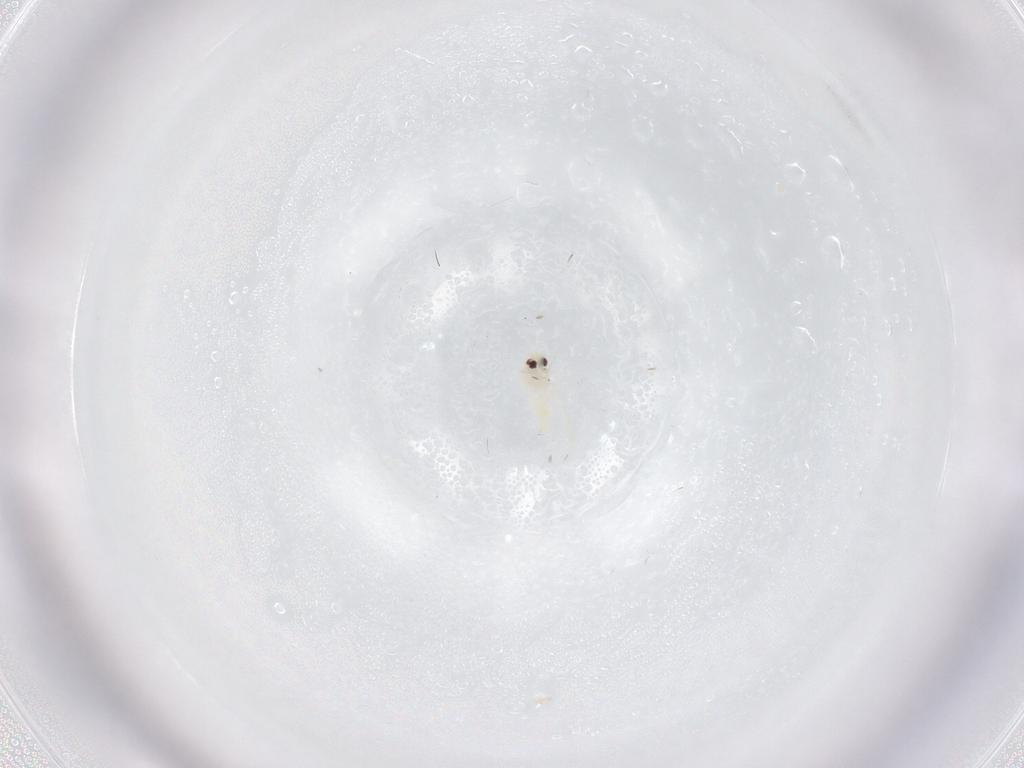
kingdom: Animalia
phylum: Arthropoda
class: Insecta
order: Hemiptera
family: Aleyrodidae
